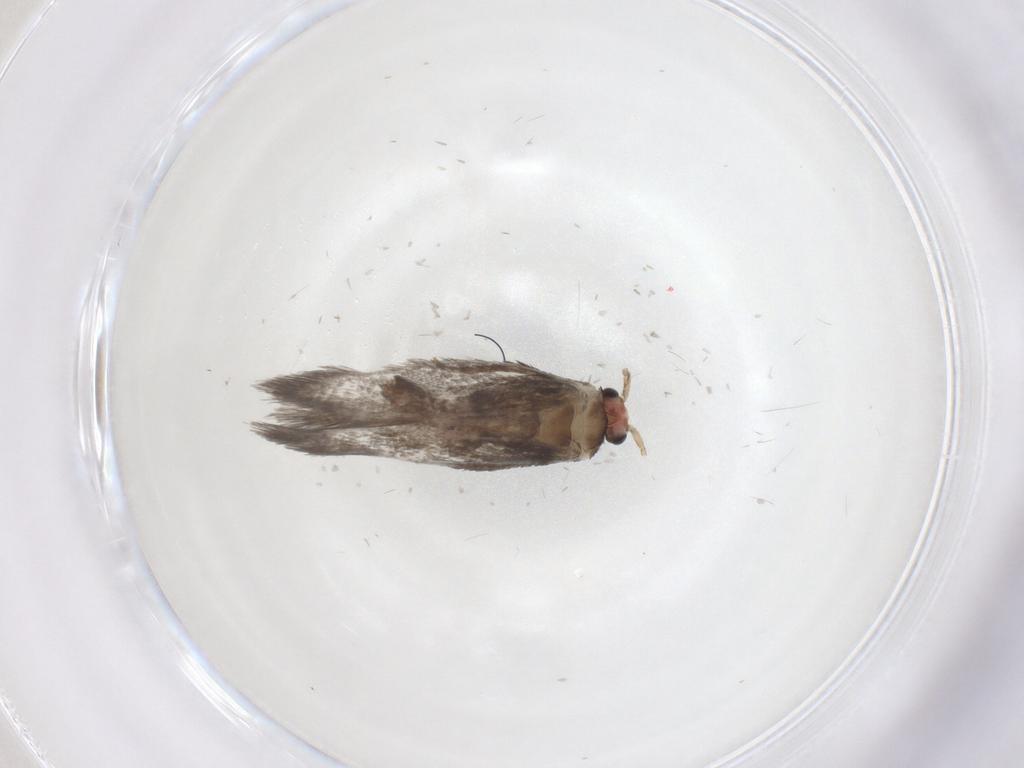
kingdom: Animalia
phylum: Arthropoda
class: Insecta
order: Lepidoptera
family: Nepticulidae
